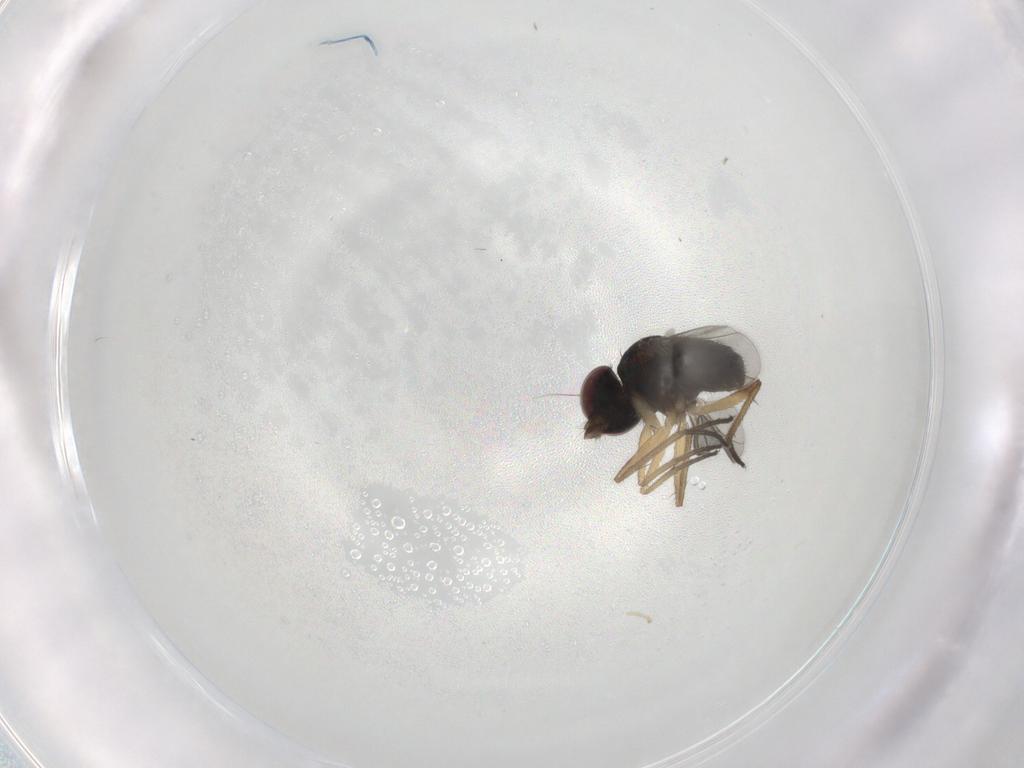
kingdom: Animalia
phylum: Arthropoda
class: Insecta
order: Diptera
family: Dolichopodidae
